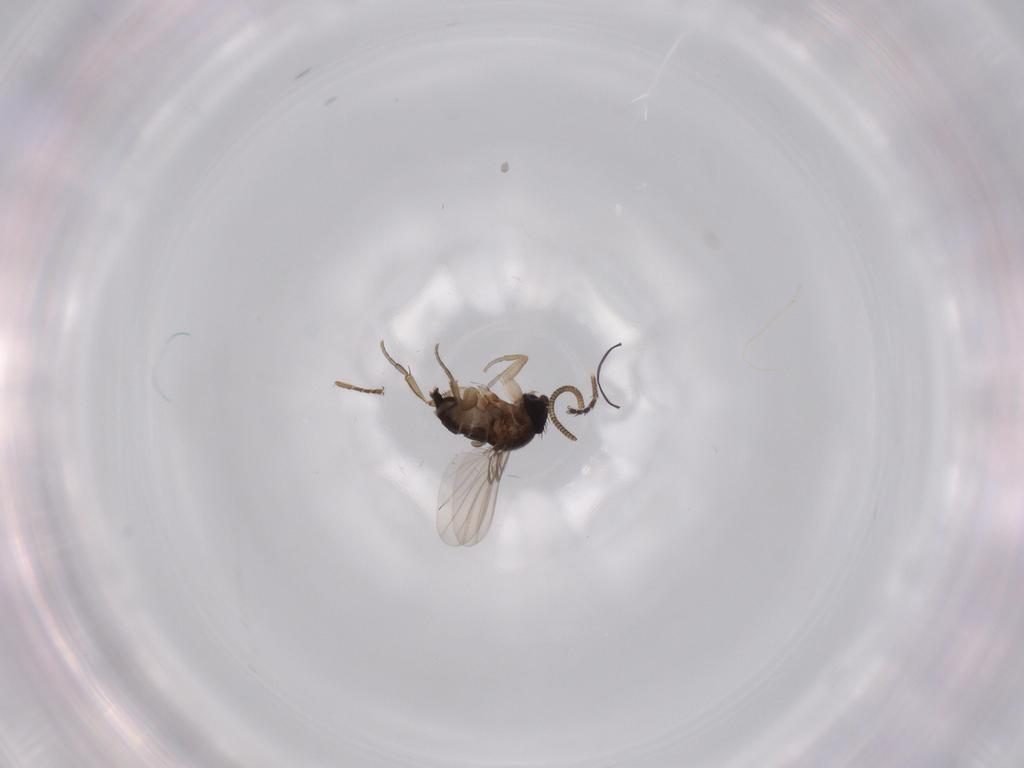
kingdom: Animalia
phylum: Arthropoda
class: Insecta
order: Diptera
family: Phoridae
